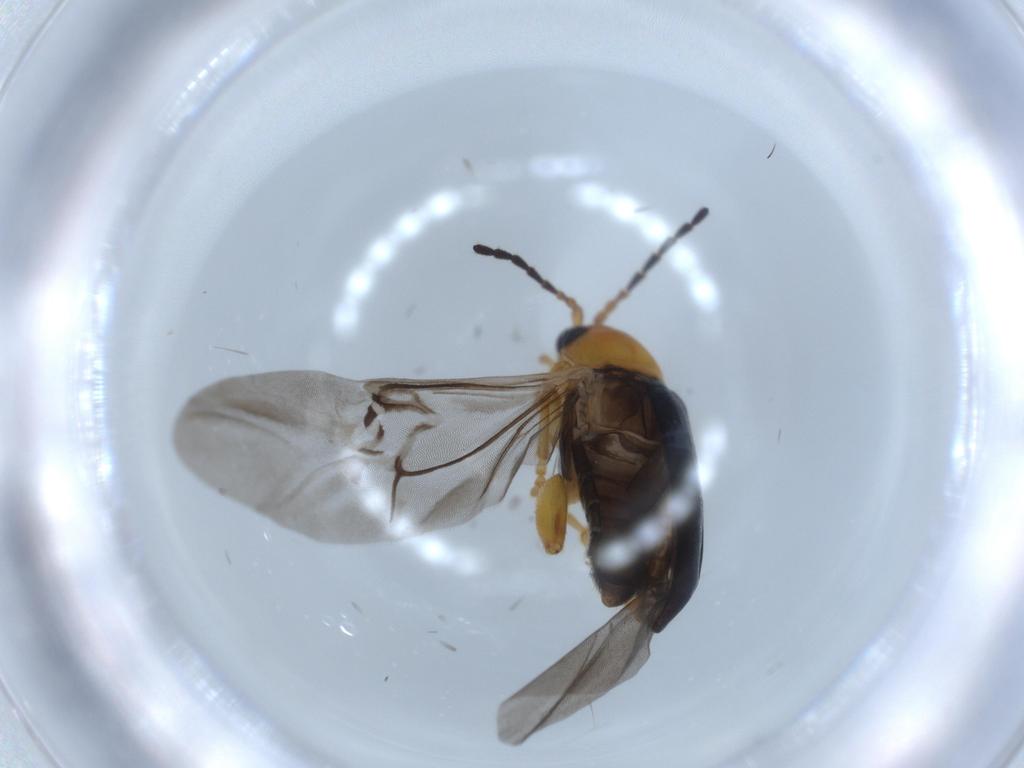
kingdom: Animalia
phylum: Arthropoda
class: Insecta
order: Coleoptera
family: Chrysomelidae
